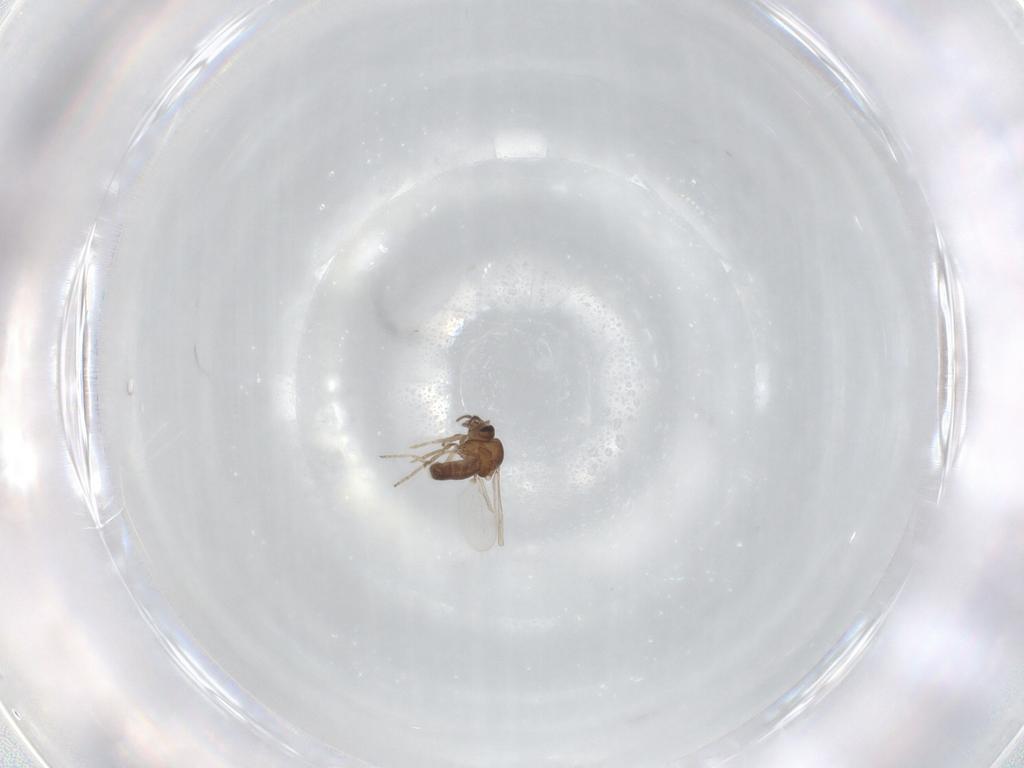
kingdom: Animalia
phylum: Arthropoda
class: Insecta
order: Diptera
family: Ceratopogonidae
